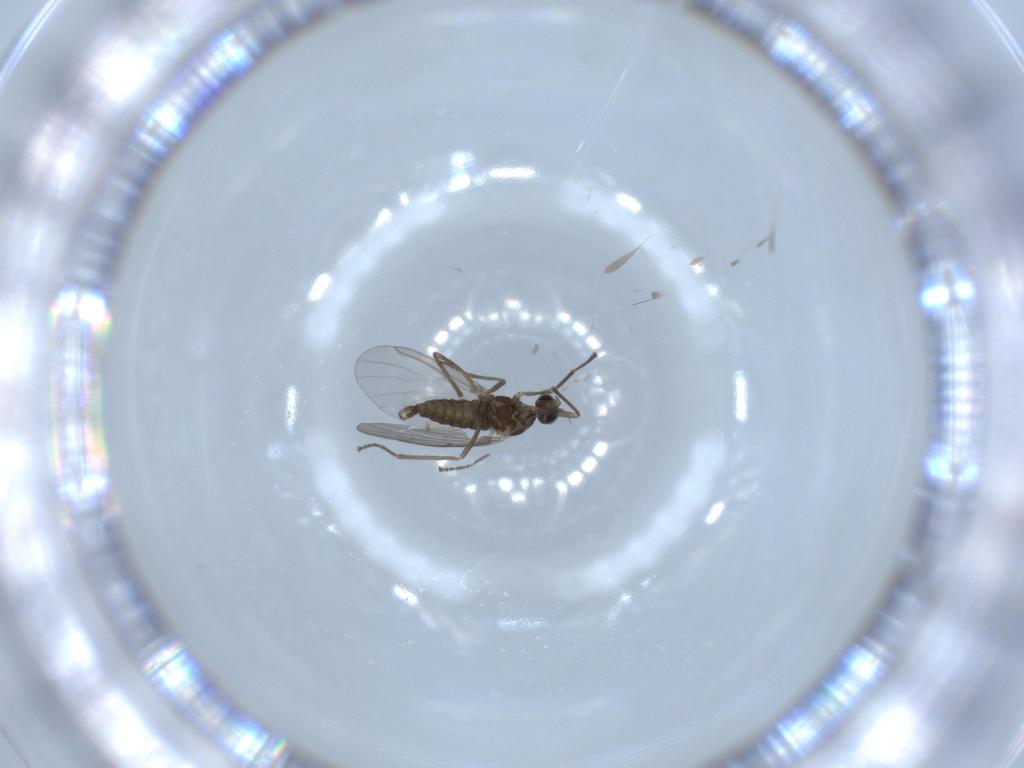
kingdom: Animalia
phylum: Arthropoda
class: Insecta
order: Diptera
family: Cecidomyiidae
